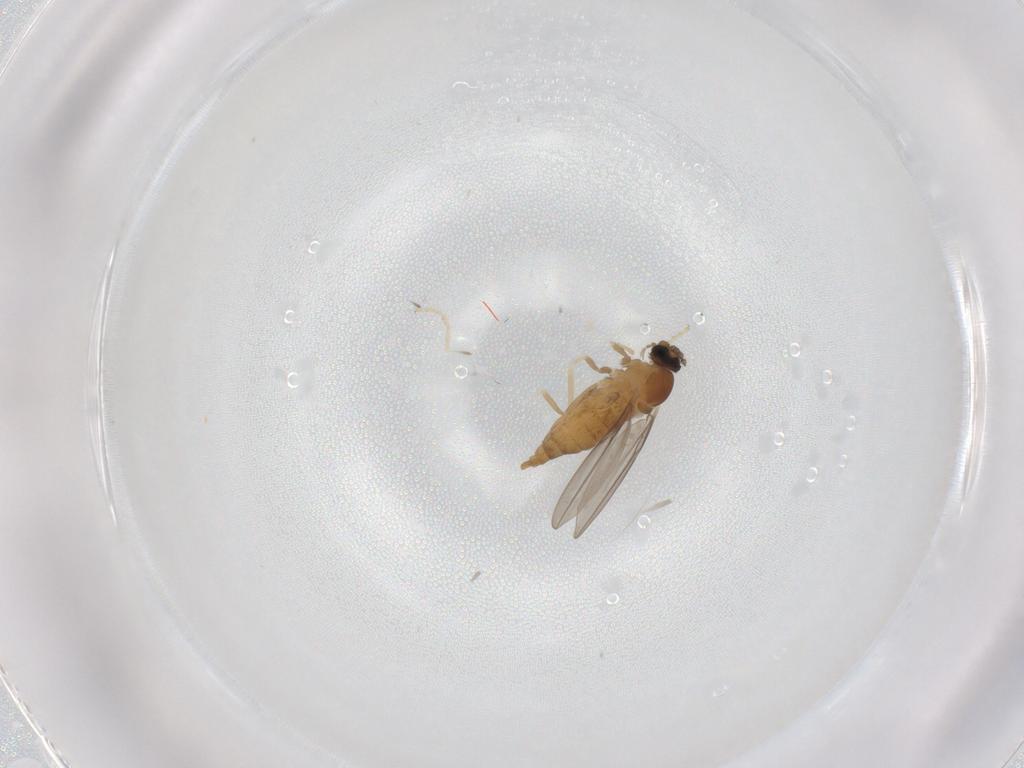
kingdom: Animalia
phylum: Arthropoda
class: Insecta
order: Diptera
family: Cecidomyiidae
